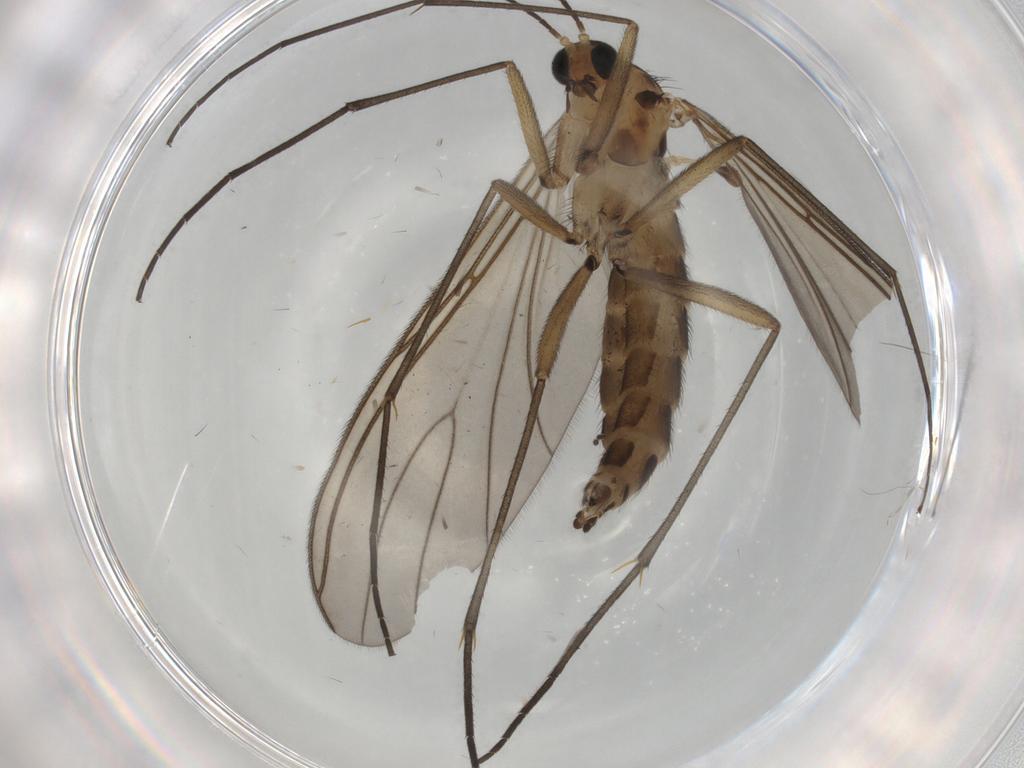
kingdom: Animalia
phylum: Arthropoda
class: Insecta
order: Diptera
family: Sciaridae
